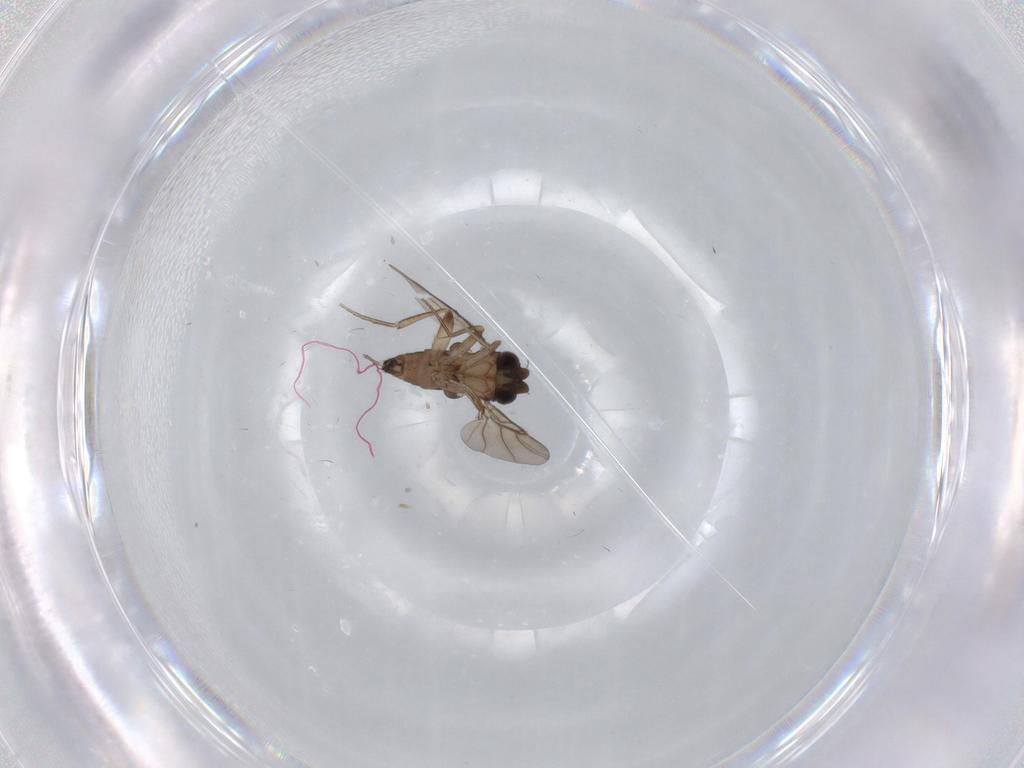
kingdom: Animalia
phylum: Arthropoda
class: Insecta
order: Diptera
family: Phoridae
